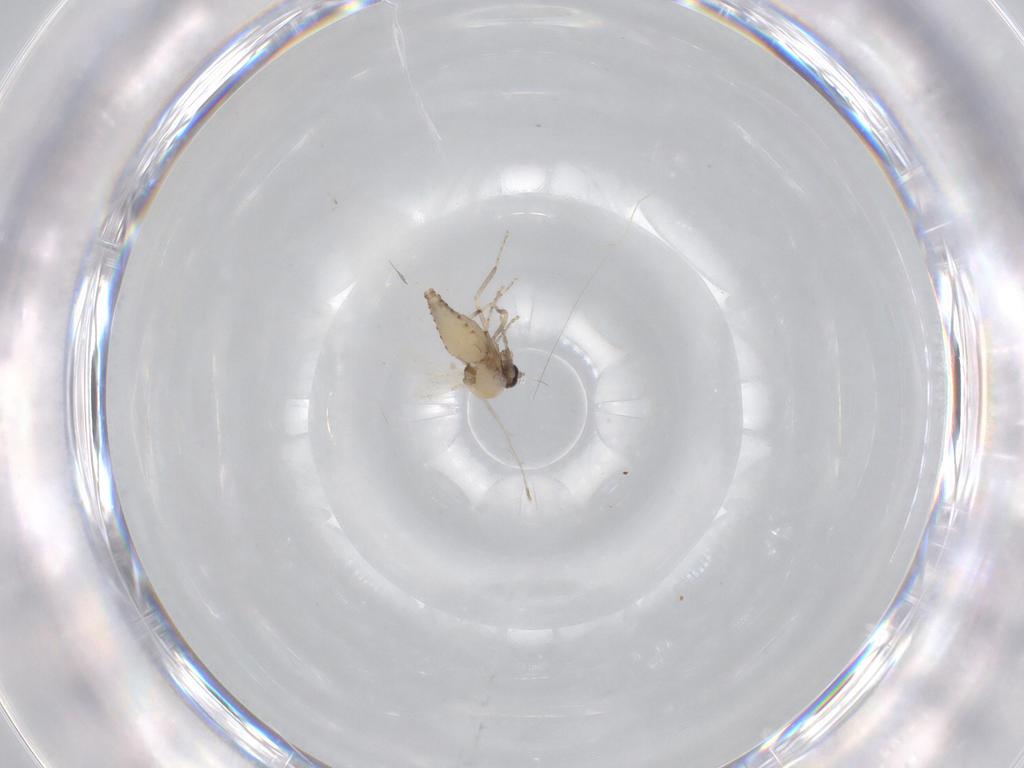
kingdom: Animalia
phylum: Arthropoda
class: Insecta
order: Diptera
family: Ceratopogonidae
